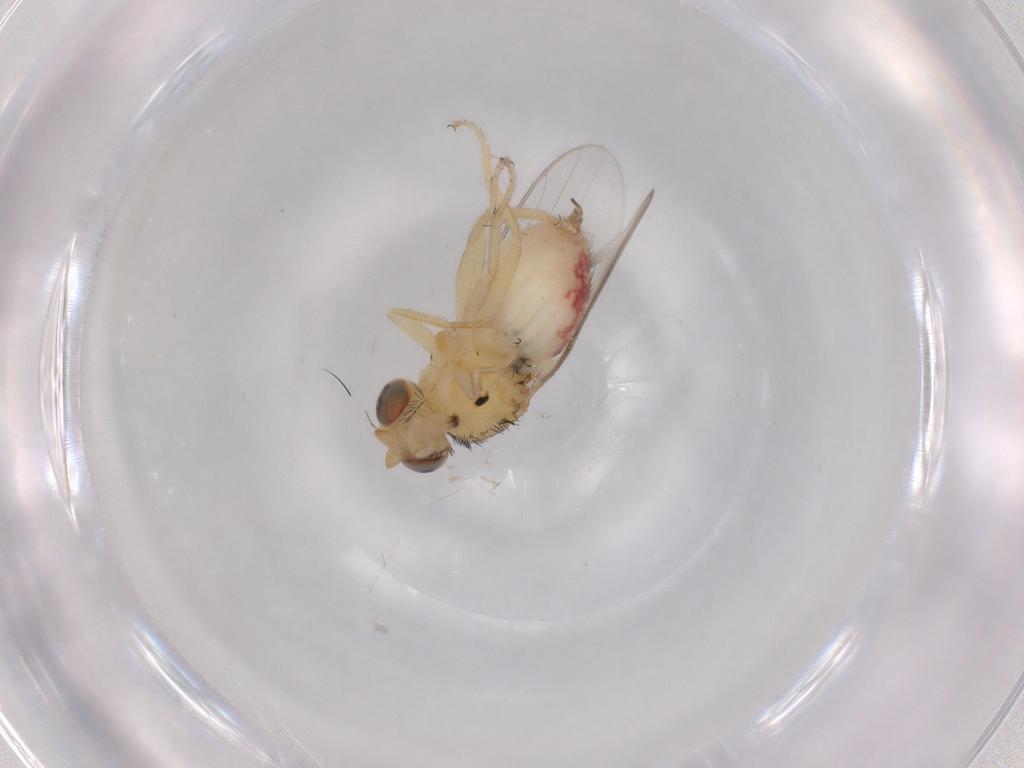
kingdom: Animalia
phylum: Arthropoda
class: Insecta
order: Diptera
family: Chloropidae
